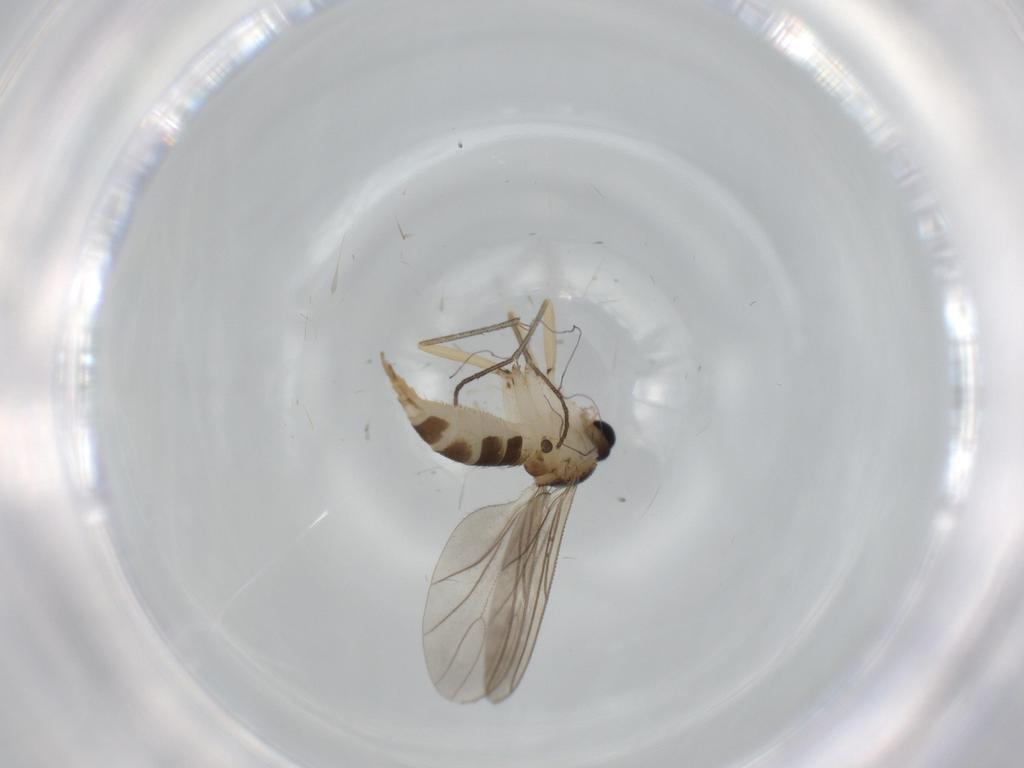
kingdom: Animalia
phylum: Arthropoda
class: Insecta
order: Diptera
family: Sciaridae
